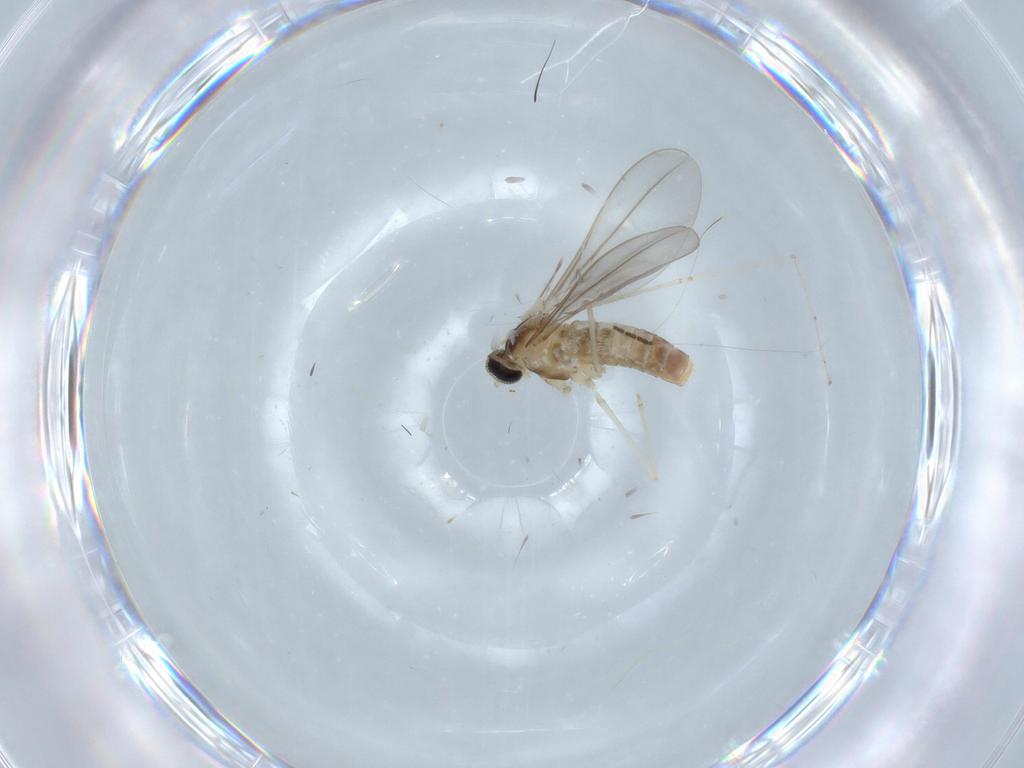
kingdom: Animalia
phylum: Arthropoda
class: Insecta
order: Diptera
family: Cecidomyiidae
